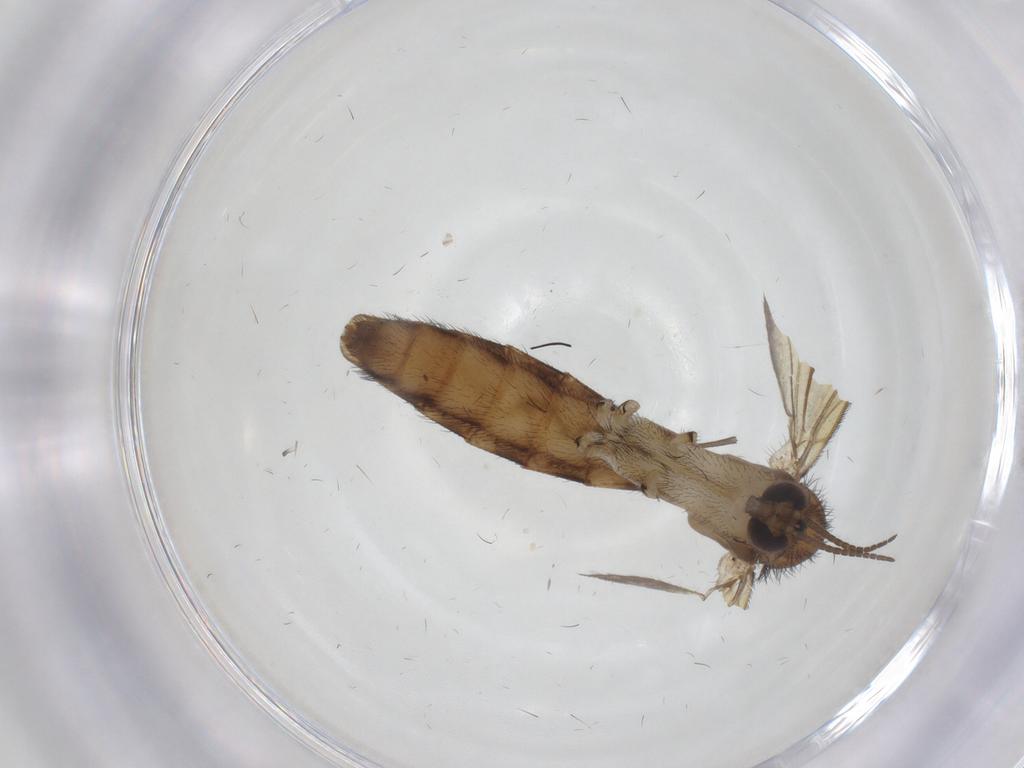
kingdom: Animalia
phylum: Arthropoda
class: Insecta
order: Diptera
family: Keroplatidae
